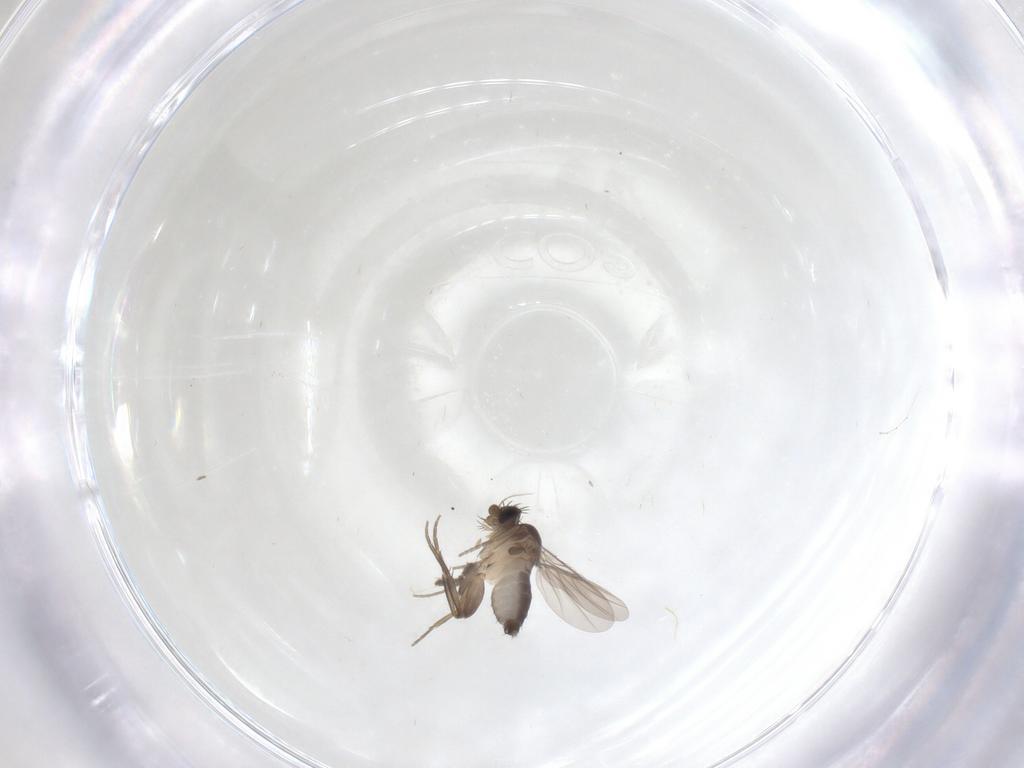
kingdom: Animalia
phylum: Arthropoda
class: Insecta
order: Diptera
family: Phoridae
